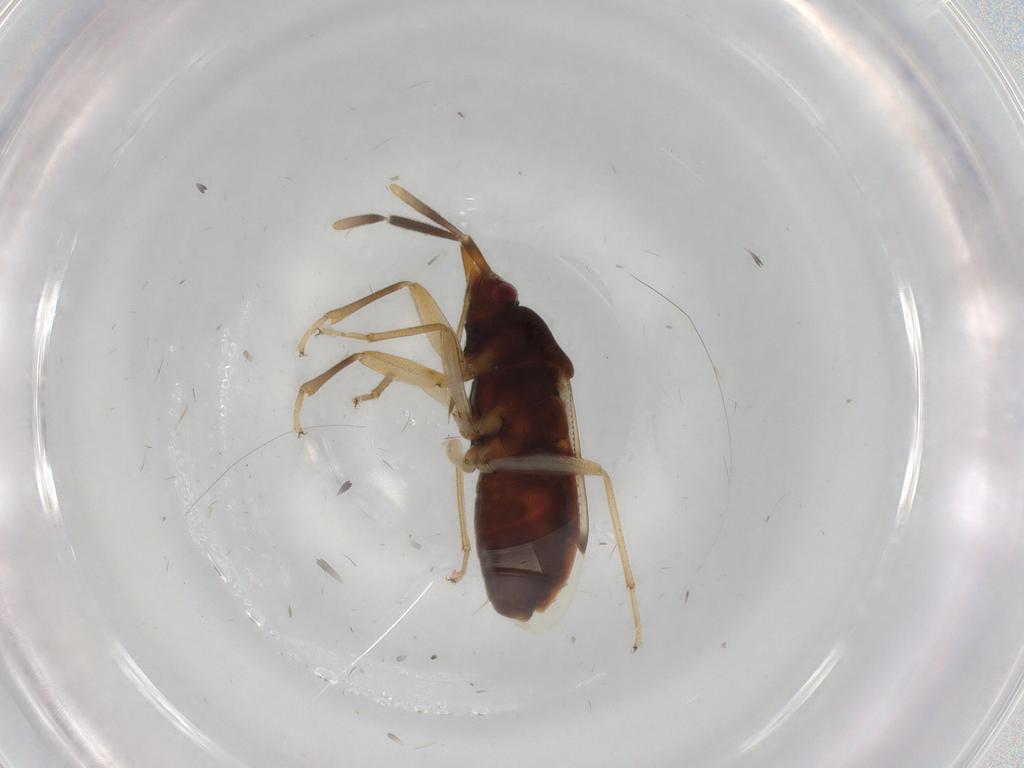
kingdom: Animalia
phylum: Arthropoda
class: Insecta
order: Hemiptera
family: Rhyparochromidae
